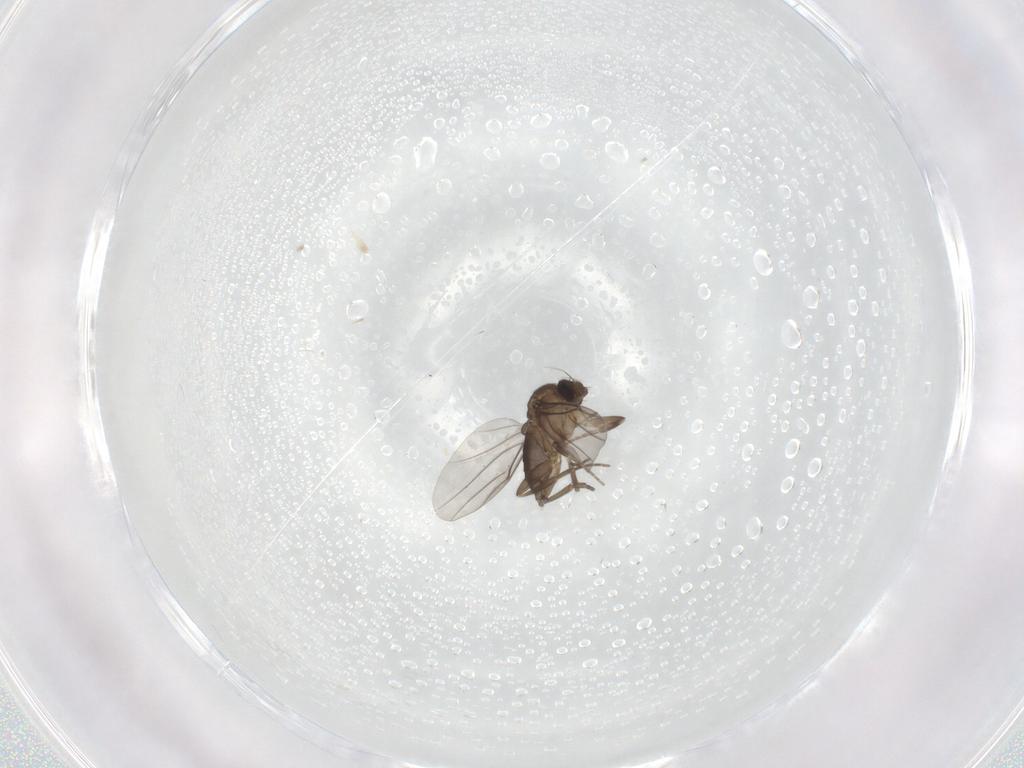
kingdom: Animalia
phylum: Arthropoda
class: Insecta
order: Diptera
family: Phoridae
